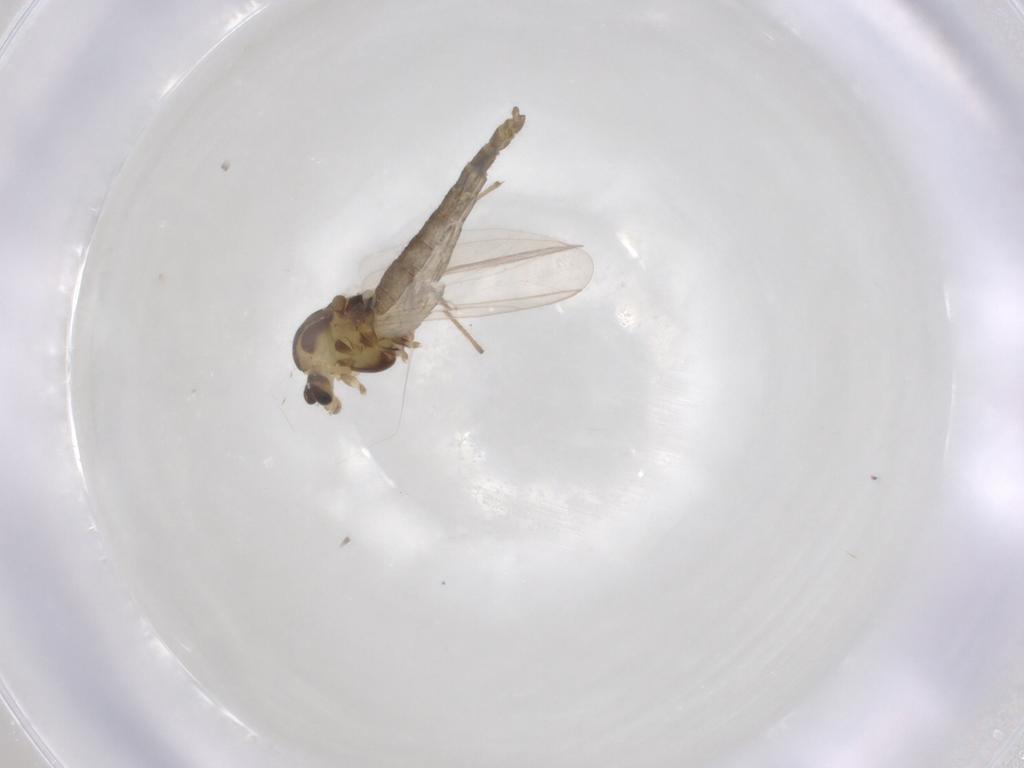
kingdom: Animalia
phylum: Arthropoda
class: Insecta
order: Diptera
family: Chironomidae
